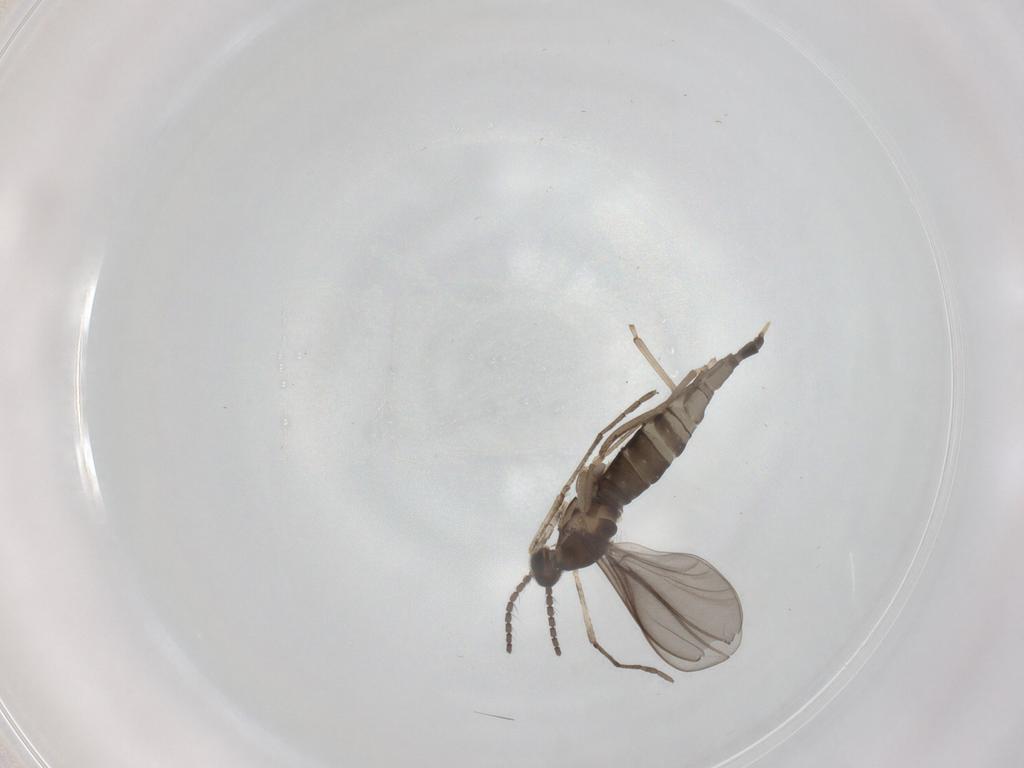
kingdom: Animalia
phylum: Arthropoda
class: Insecta
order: Diptera
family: Cecidomyiidae
